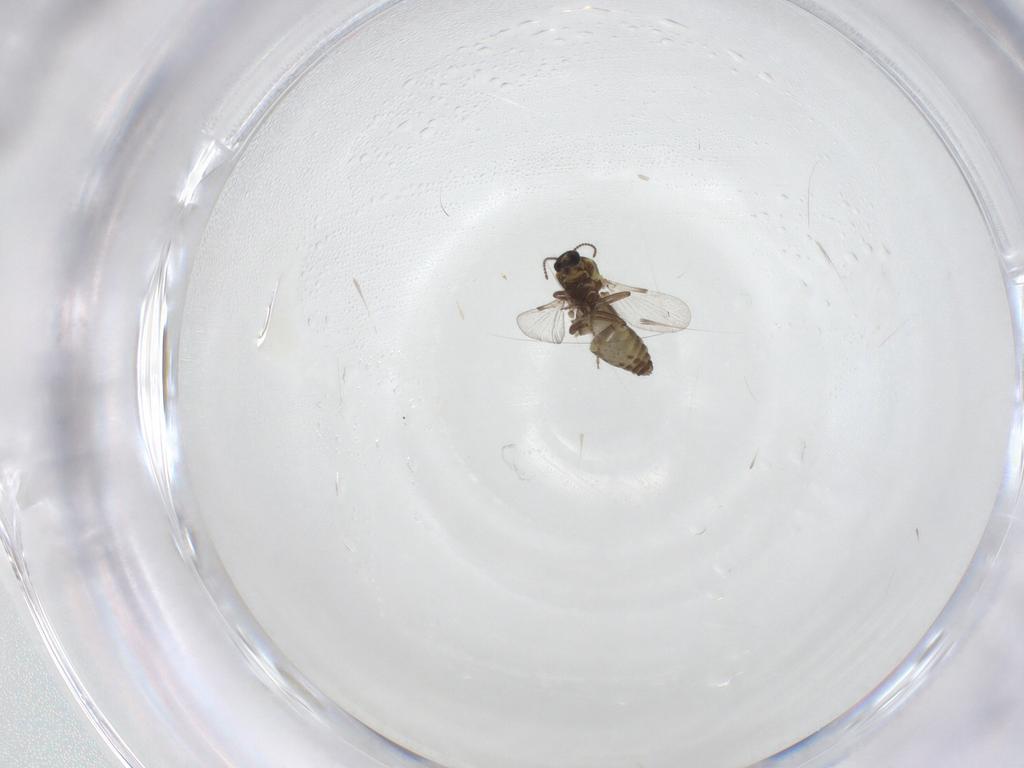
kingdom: Animalia
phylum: Arthropoda
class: Insecta
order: Diptera
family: Ceratopogonidae
